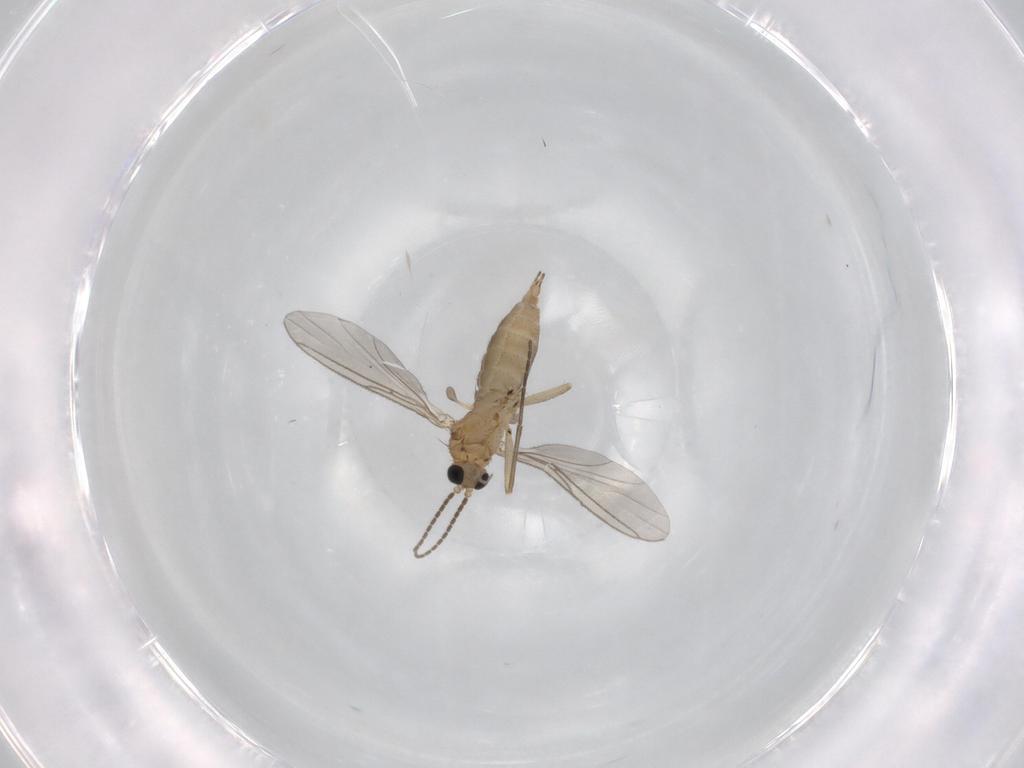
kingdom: Animalia
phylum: Arthropoda
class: Insecta
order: Diptera
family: Sciaridae
